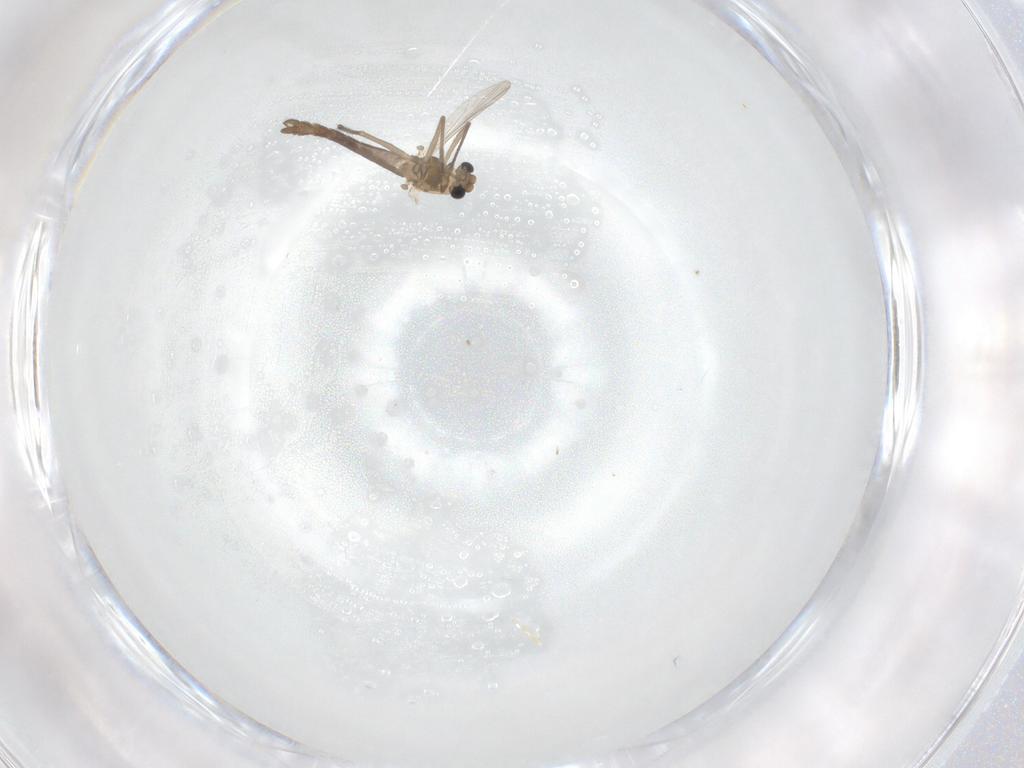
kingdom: Animalia
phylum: Arthropoda
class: Insecta
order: Diptera
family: Chironomidae
